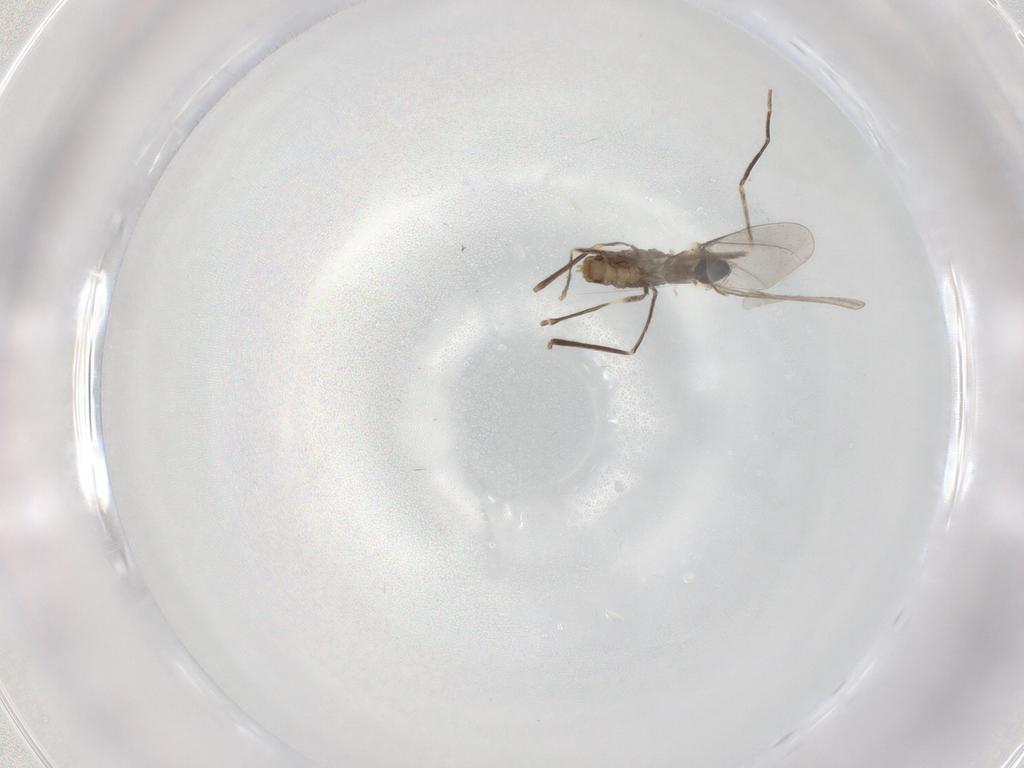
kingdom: Animalia
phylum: Arthropoda
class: Insecta
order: Diptera
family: Cecidomyiidae
